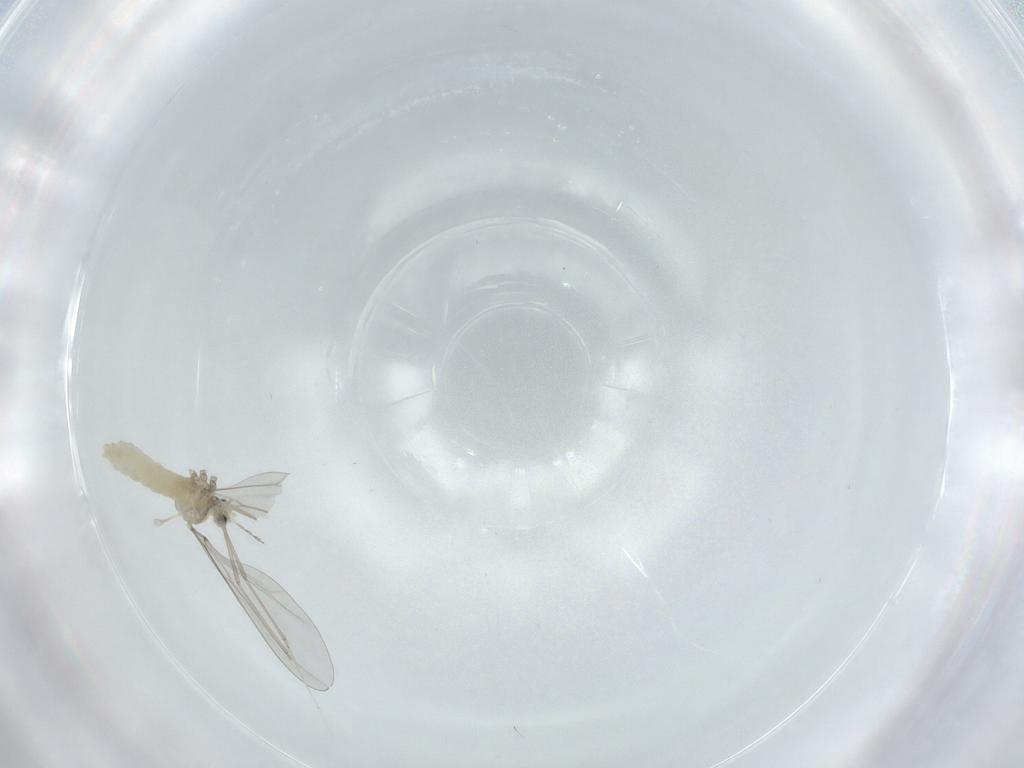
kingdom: Animalia
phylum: Arthropoda
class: Insecta
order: Diptera
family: Cecidomyiidae
